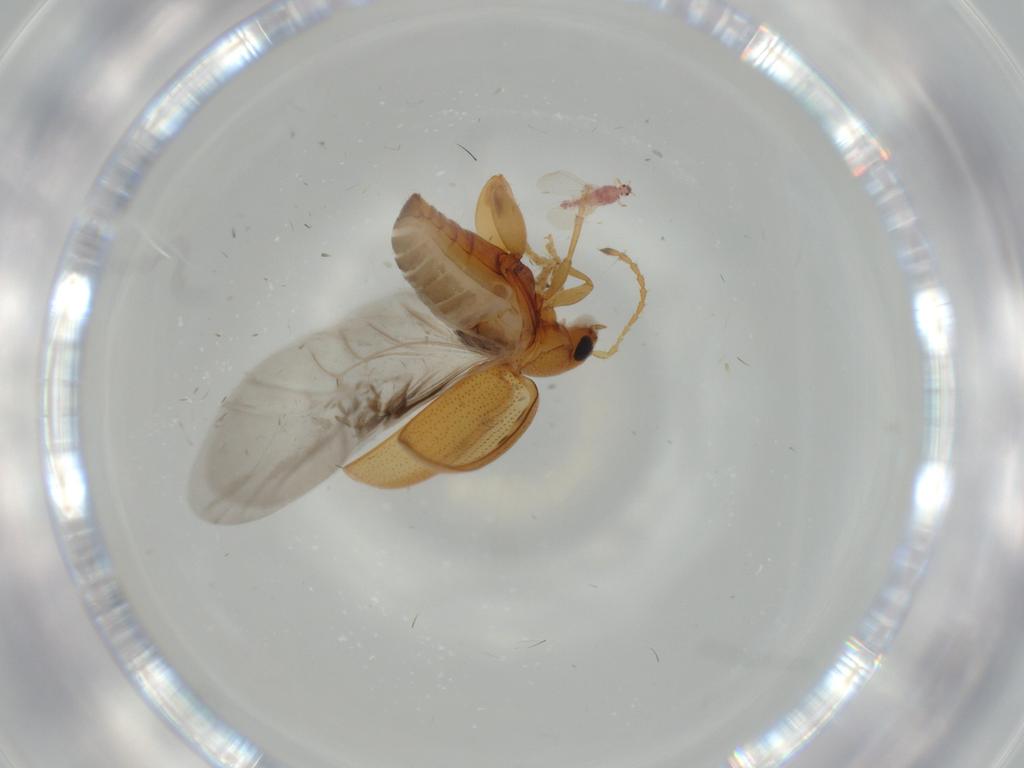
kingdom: Animalia
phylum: Arthropoda
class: Insecta
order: Coleoptera
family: Chrysomelidae
